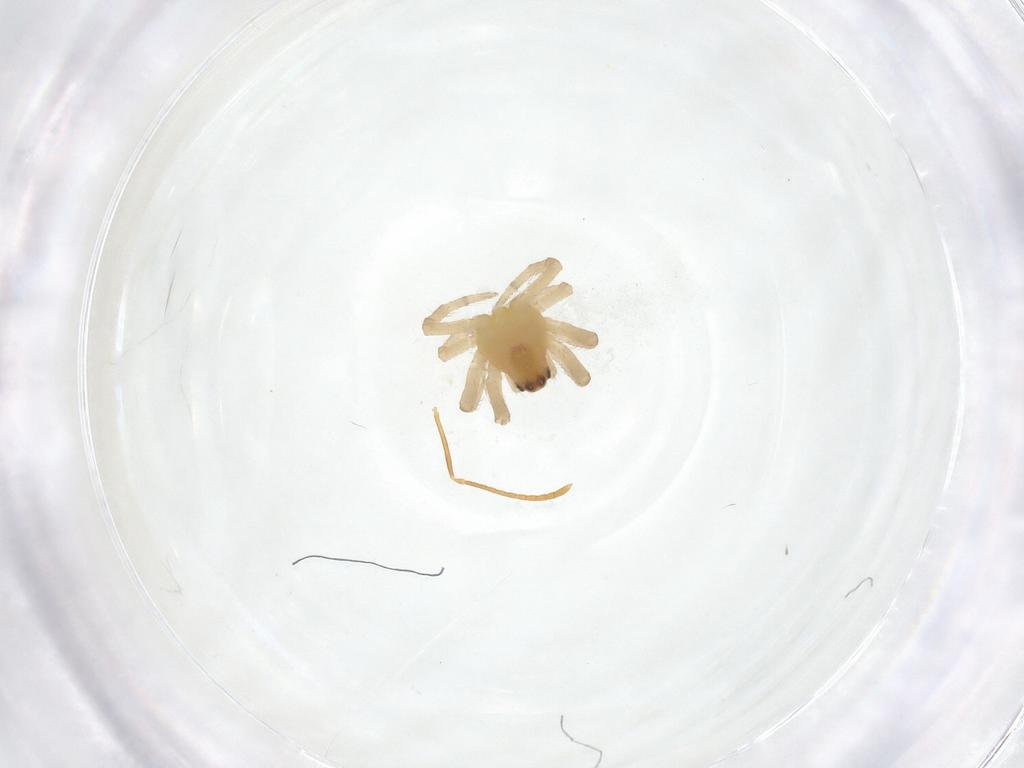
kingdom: Animalia
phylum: Arthropoda
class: Arachnida
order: Araneae
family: Araneidae
